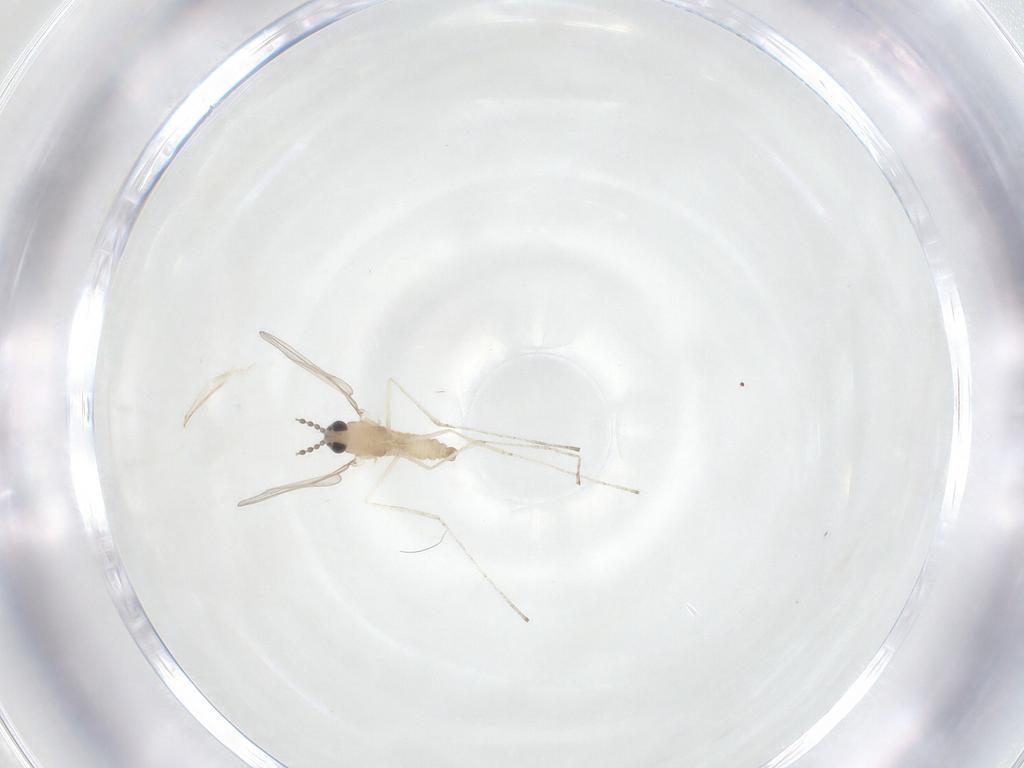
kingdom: Animalia
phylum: Arthropoda
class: Insecta
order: Diptera
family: Cecidomyiidae
